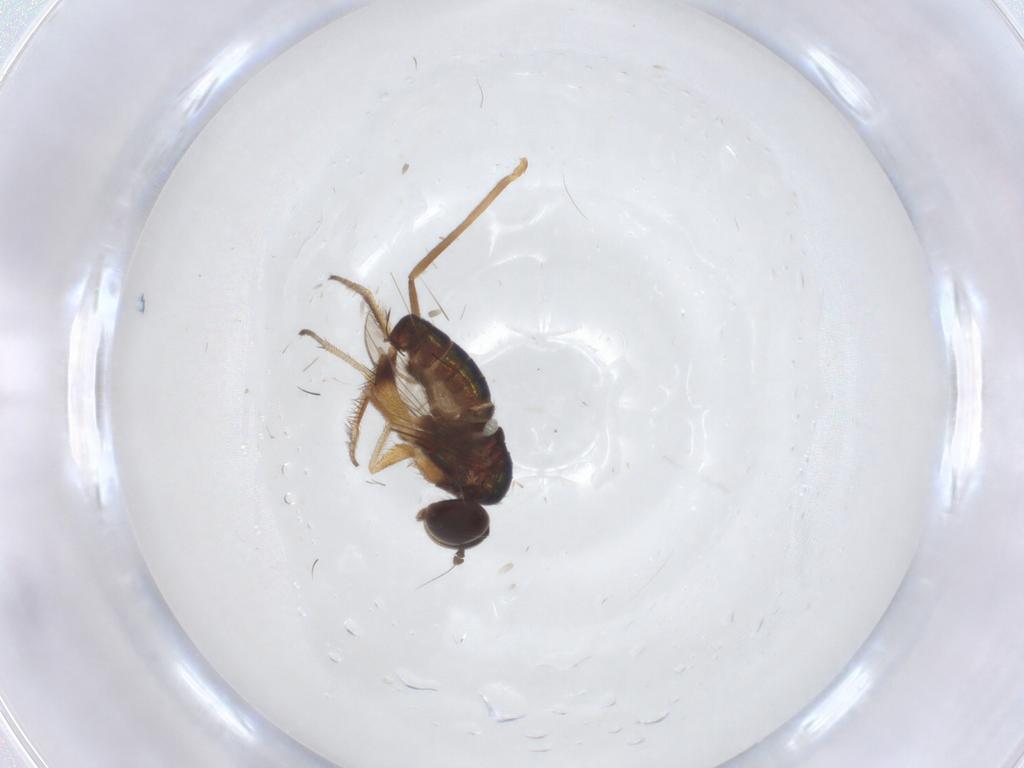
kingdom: Animalia
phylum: Arthropoda
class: Insecta
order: Diptera
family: Chironomidae
